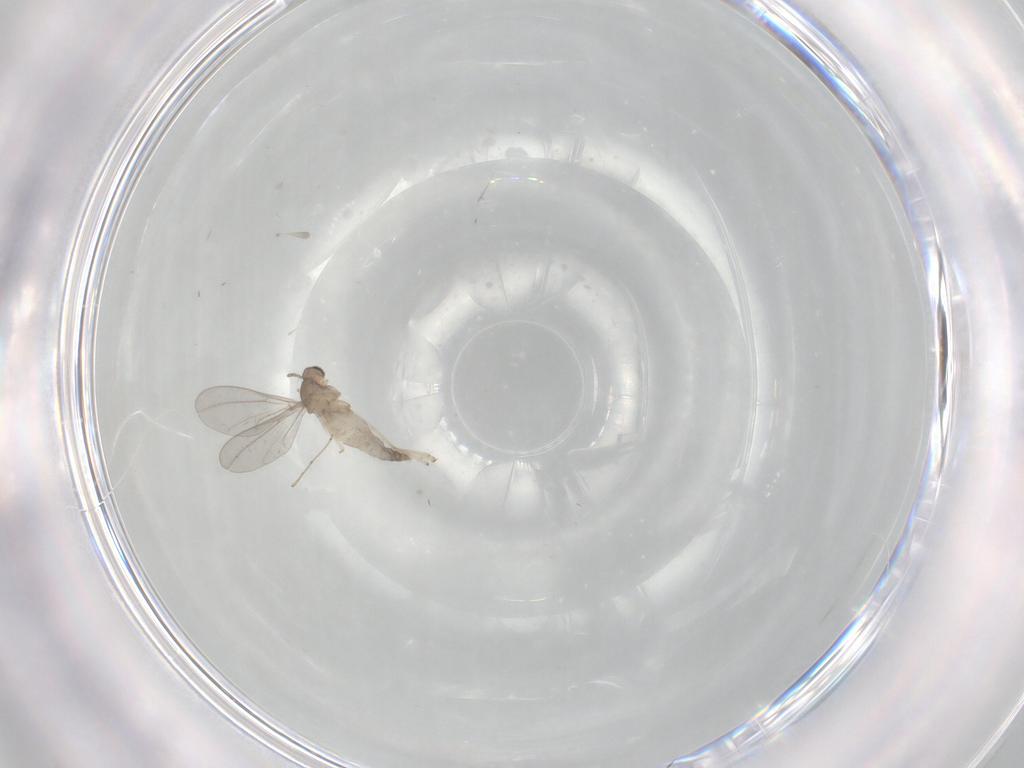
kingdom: Animalia
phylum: Arthropoda
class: Insecta
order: Diptera
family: Cecidomyiidae
